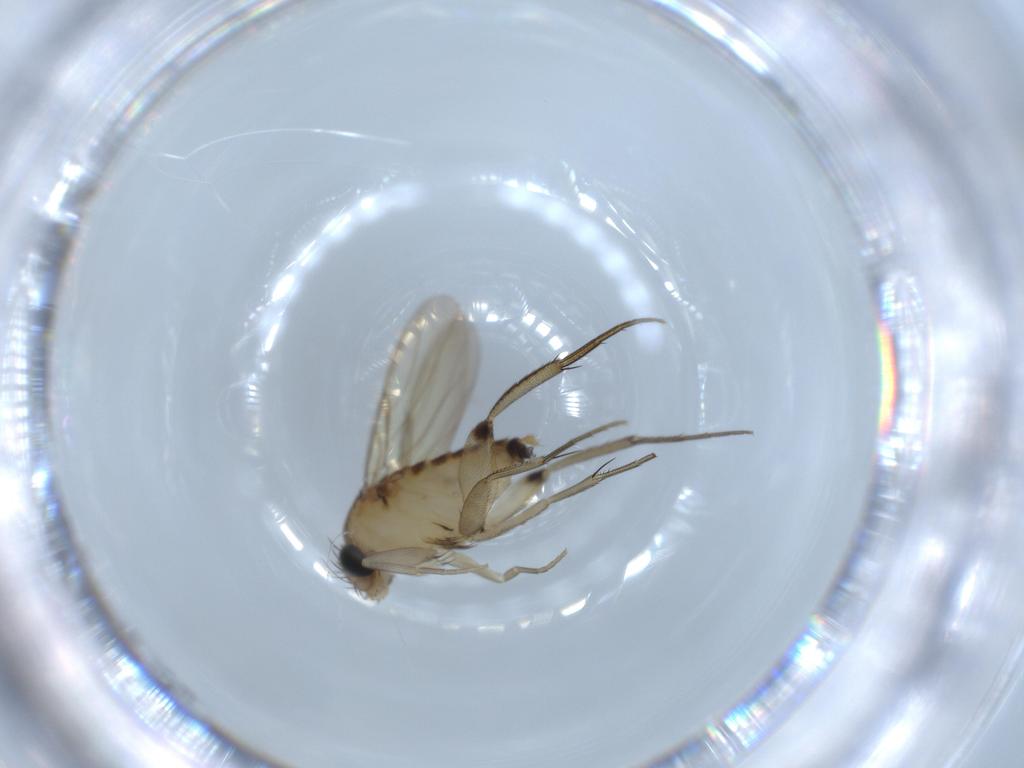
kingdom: Animalia
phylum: Arthropoda
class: Insecta
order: Diptera
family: Phoridae
